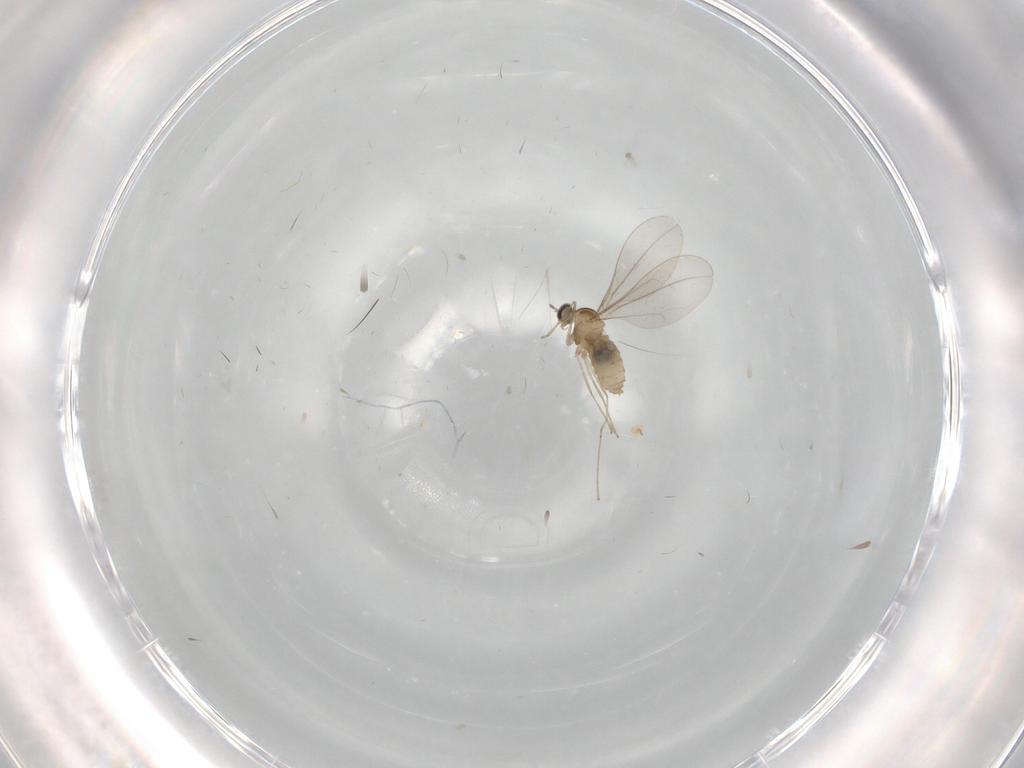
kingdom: Animalia
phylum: Arthropoda
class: Insecta
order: Diptera
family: Cecidomyiidae
